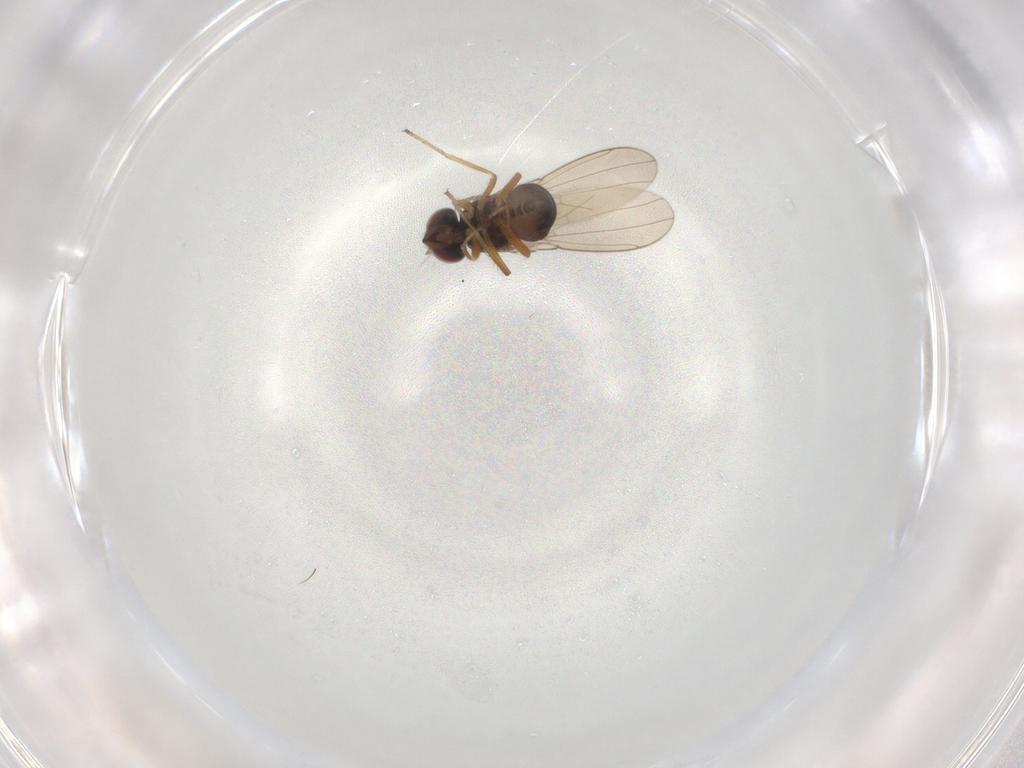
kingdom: Animalia
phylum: Arthropoda
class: Insecta
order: Diptera
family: Ephydridae
